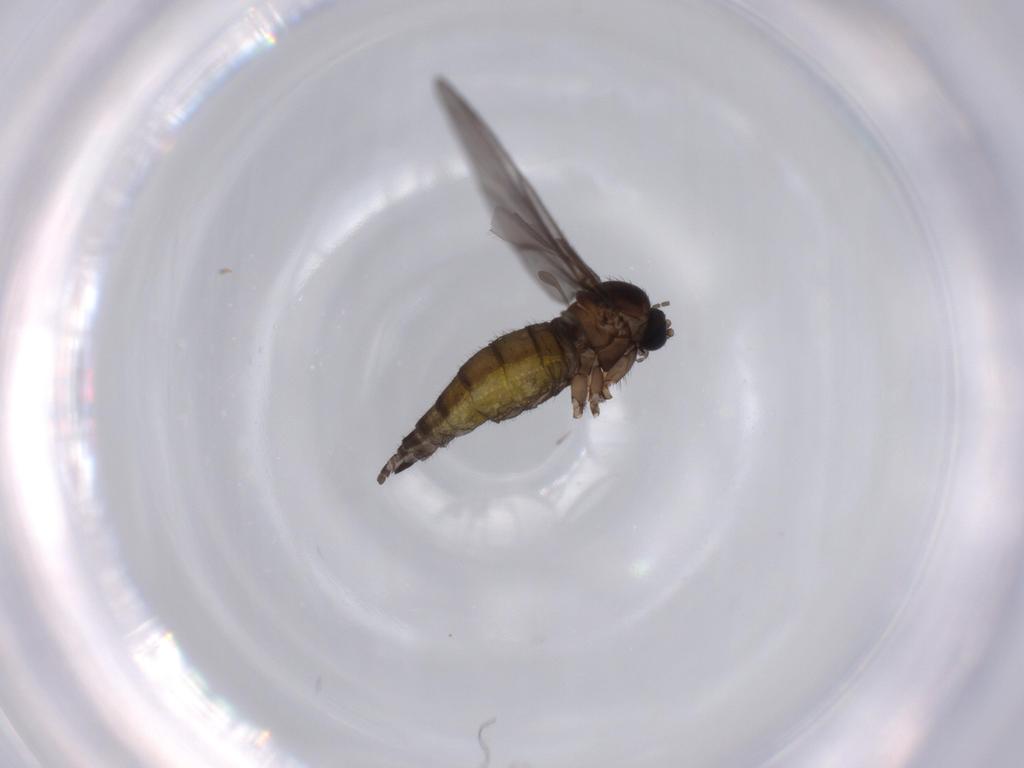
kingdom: Animalia
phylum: Arthropoda
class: Insecta
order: Diptera
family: Sciaridae
